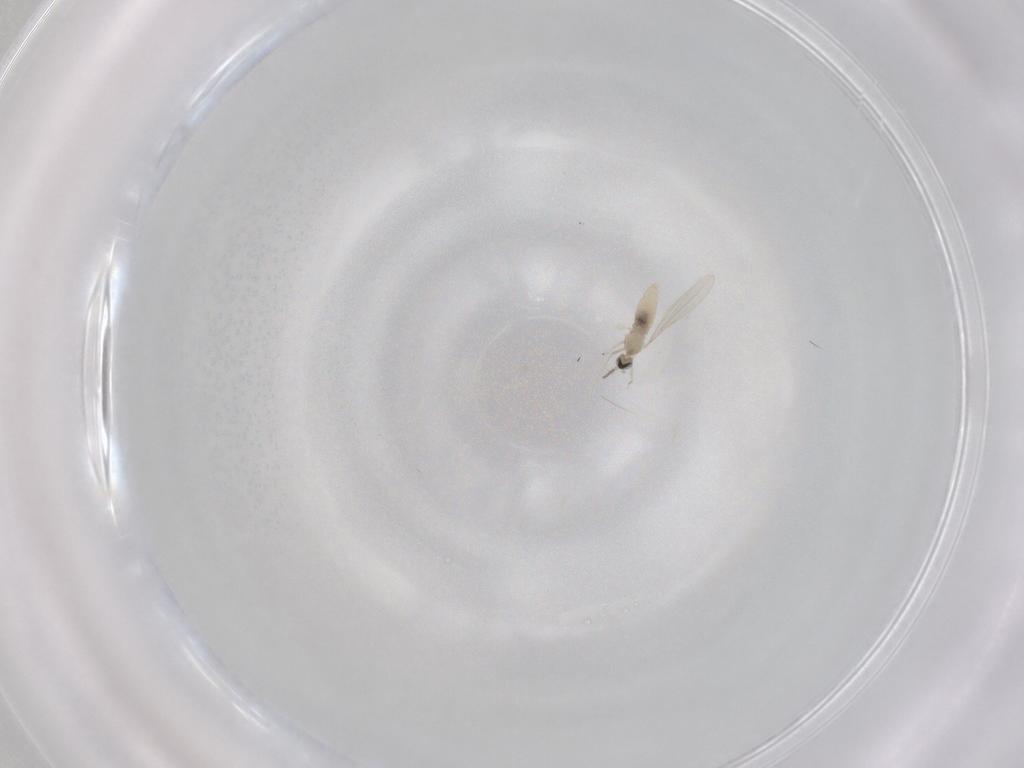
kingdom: Animalia
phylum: Arthropoda
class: Insecta
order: Diptera
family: Cecidomyiidae
